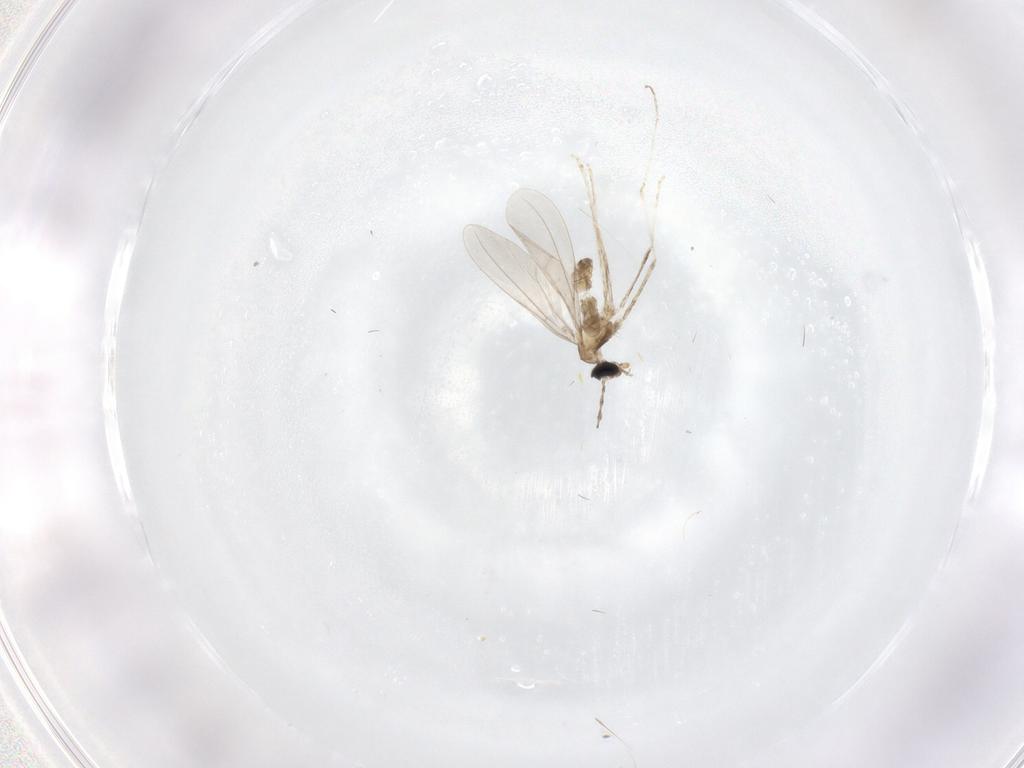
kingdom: Animalia
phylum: Arthropoda
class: Insecta
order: Diptera
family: Cecidomyiidae
